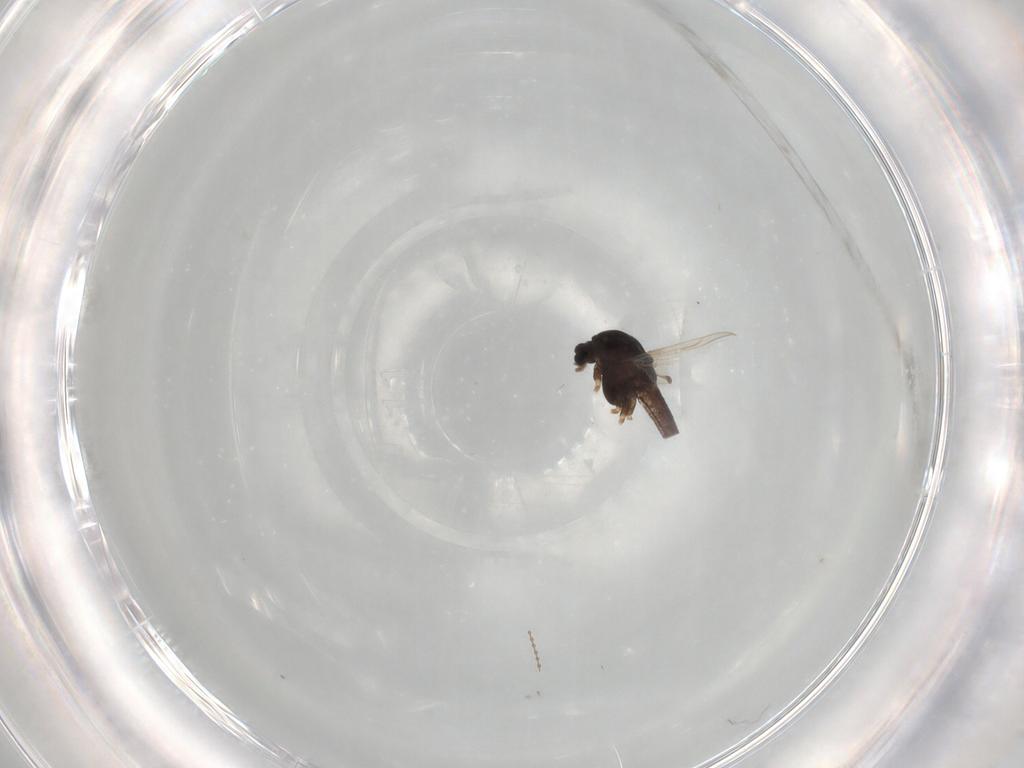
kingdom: Animalia
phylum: Arthropoda
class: Insecta
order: Diptera
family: Chironomidae
